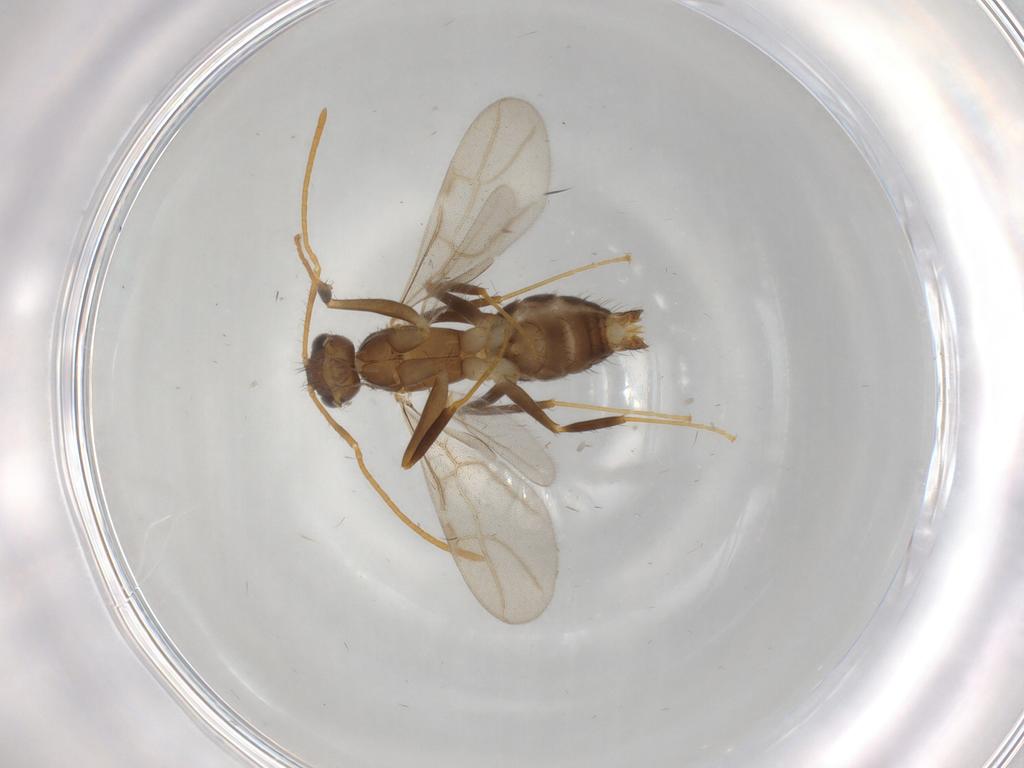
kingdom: Animalia
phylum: Arthropoda
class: Insecta
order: Hymenoptera
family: Formicidae
